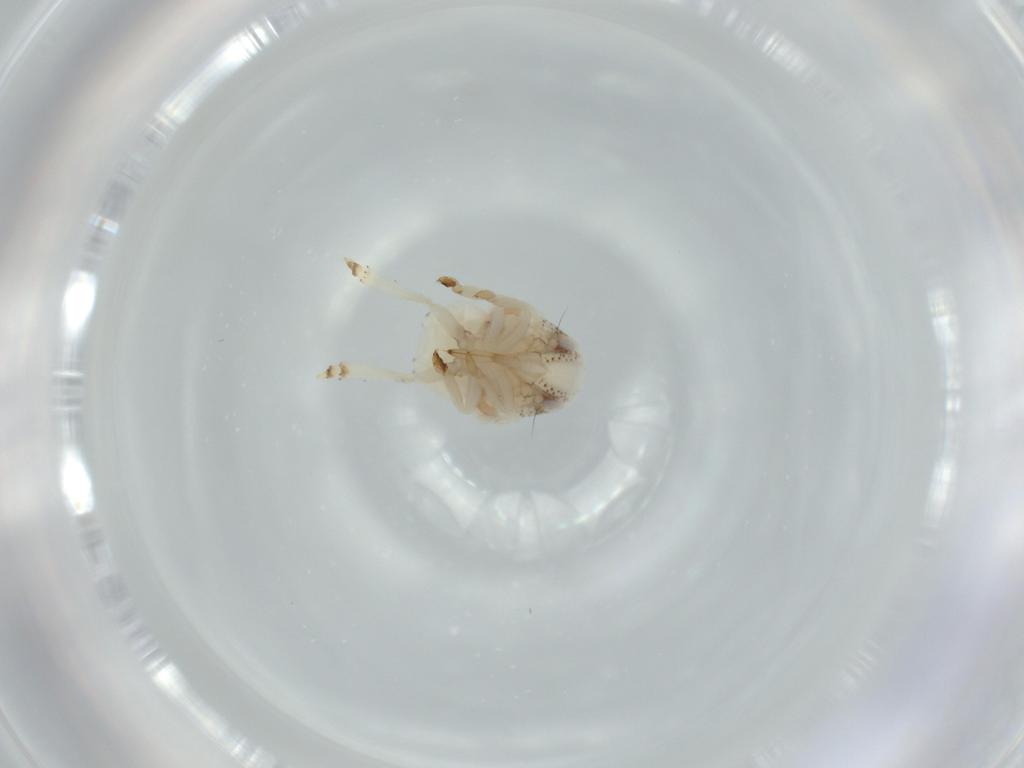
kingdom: Animalia
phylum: Arthropoda
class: Insecta
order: Hemiptera
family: Acanaloniidae
